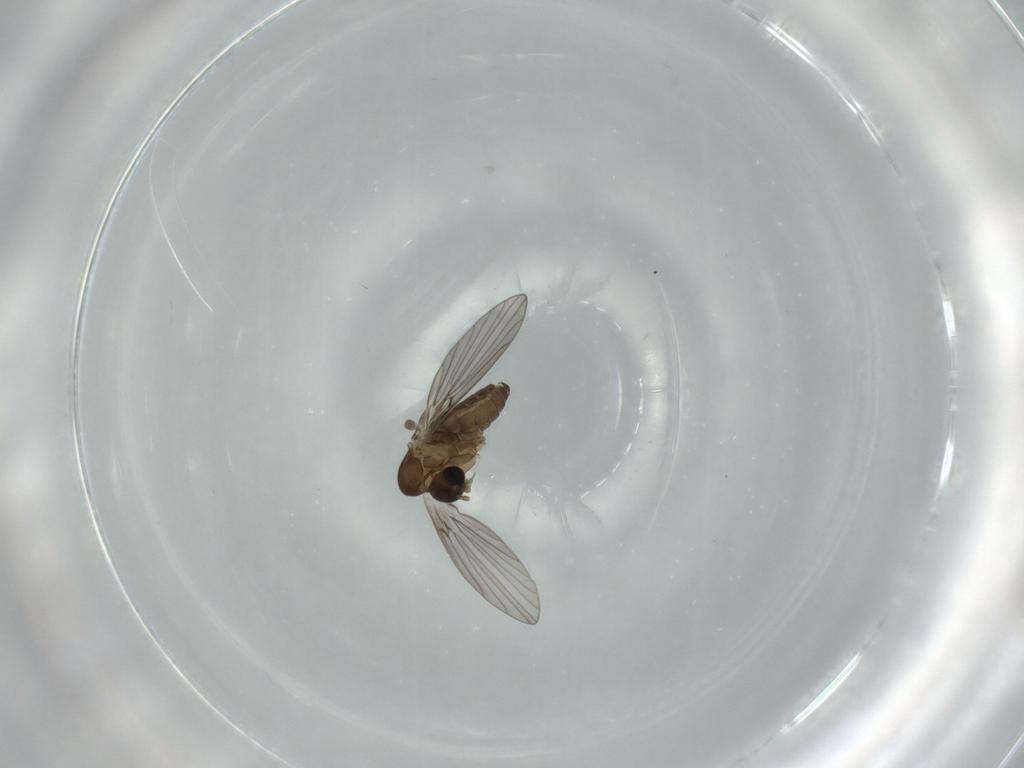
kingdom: Animalia
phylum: Arthropoda
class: Insecta
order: Diptera
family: Psychodidae
